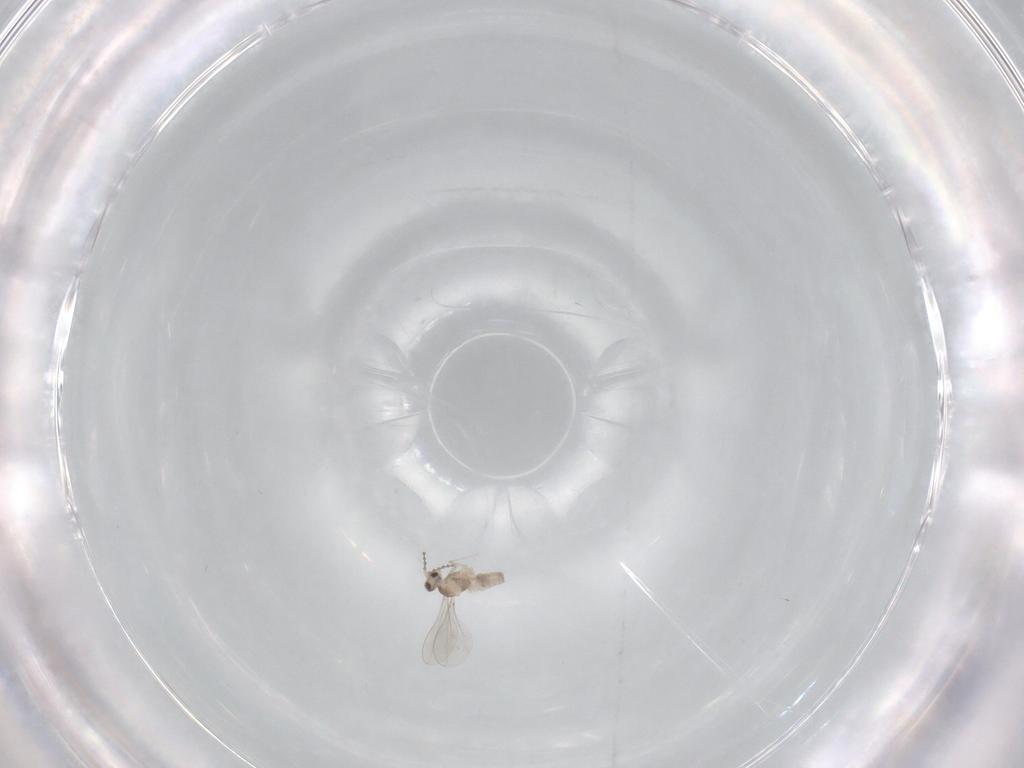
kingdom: Animalia
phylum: Arthropoda
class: Insecta
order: Diptera
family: Cecidomyiidae
